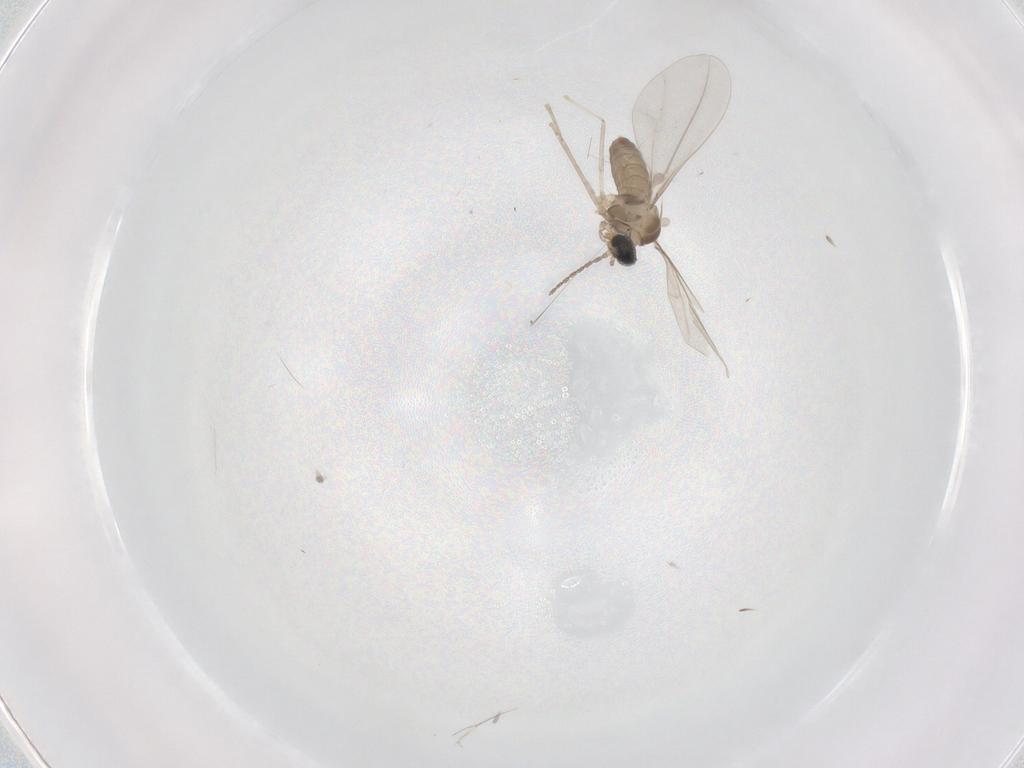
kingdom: Animalia
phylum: Arthropoda
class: Insecta
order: Diptera
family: Cecidomyiidae
